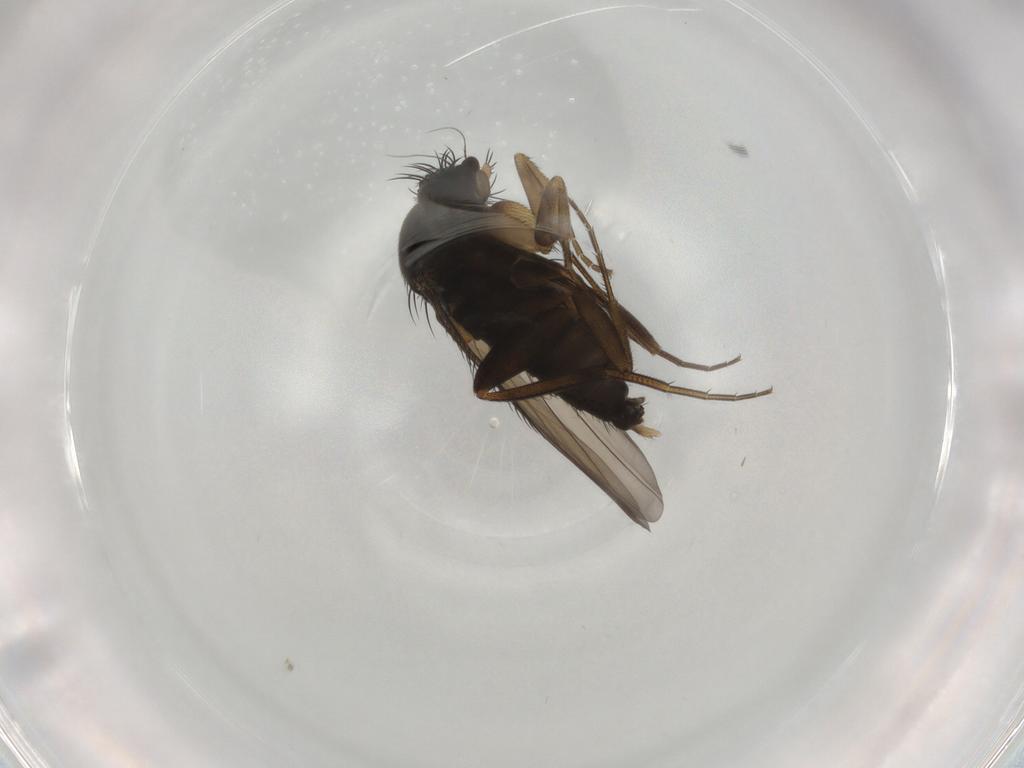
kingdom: Animalia
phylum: Arthropoda
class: Insecta
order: Diptera
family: Phoridae
